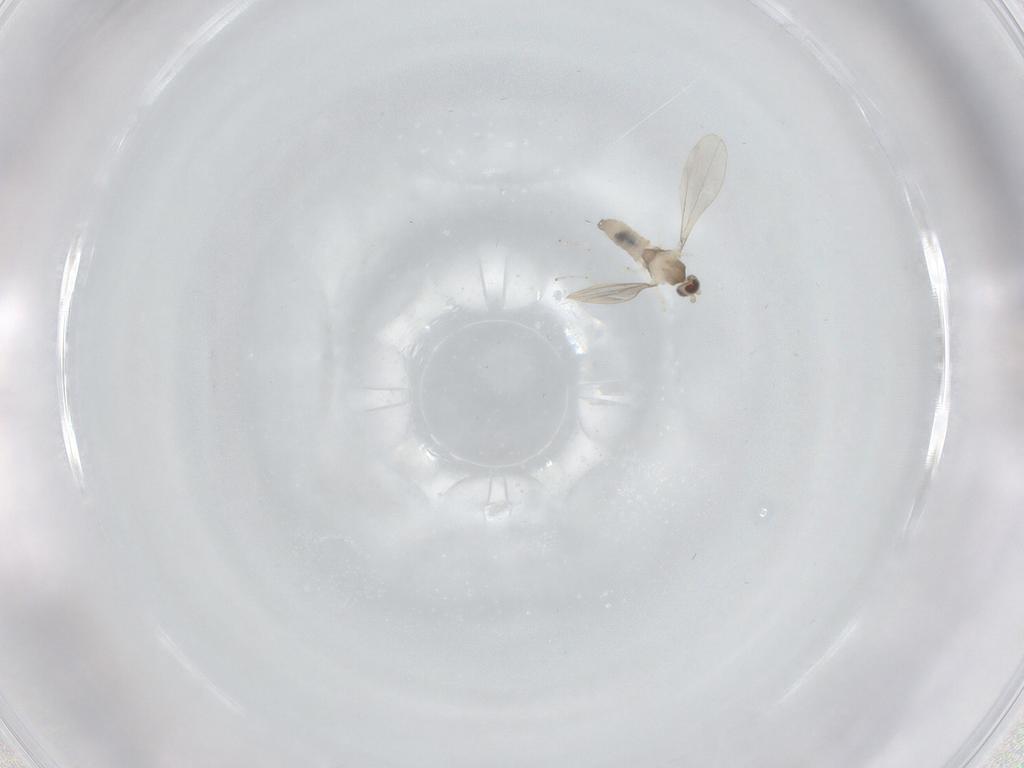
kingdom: Animalia
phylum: Arthropoda
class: Insecta
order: Diptera
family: Cecidomyiidae
